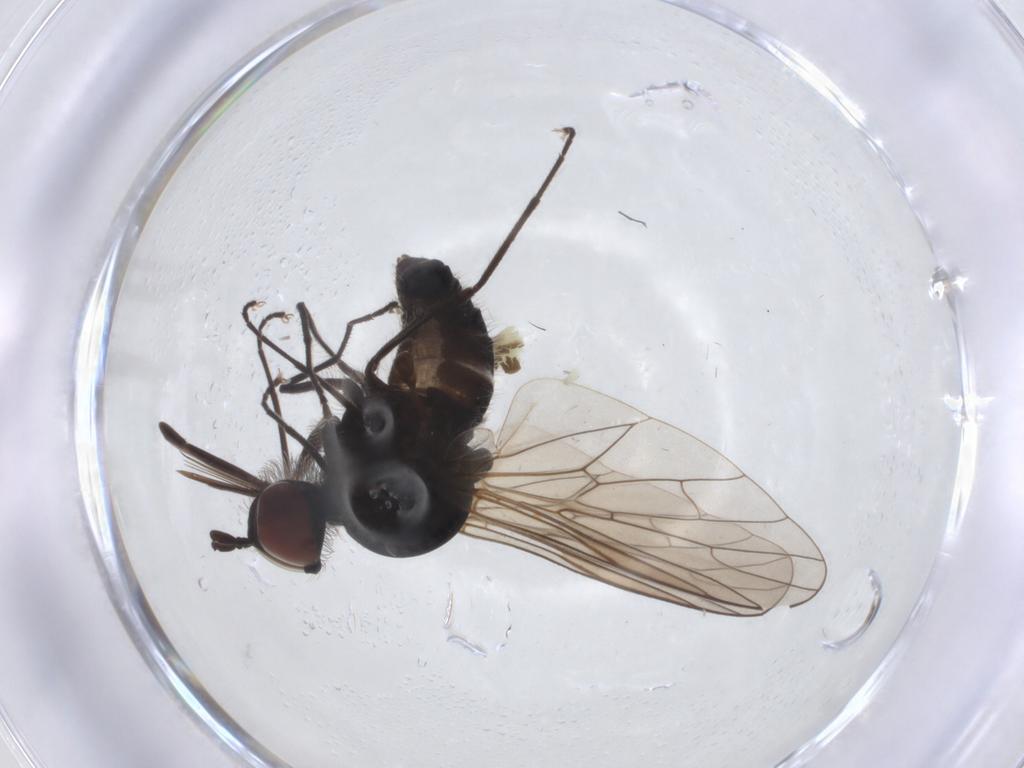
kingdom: Animalia
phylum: Arthropoda
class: Insecta
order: Diptera
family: Bombyliidae
